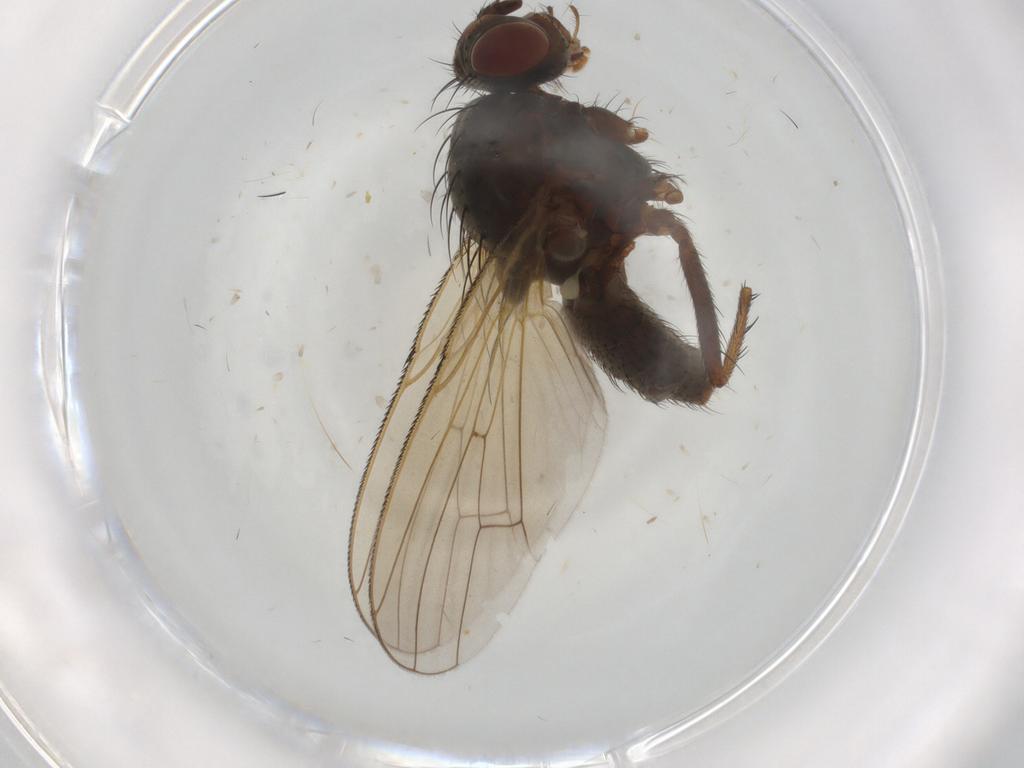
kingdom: Animalia
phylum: Arthropoda
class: Insecta
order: Diptera
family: Anthomyiidae
